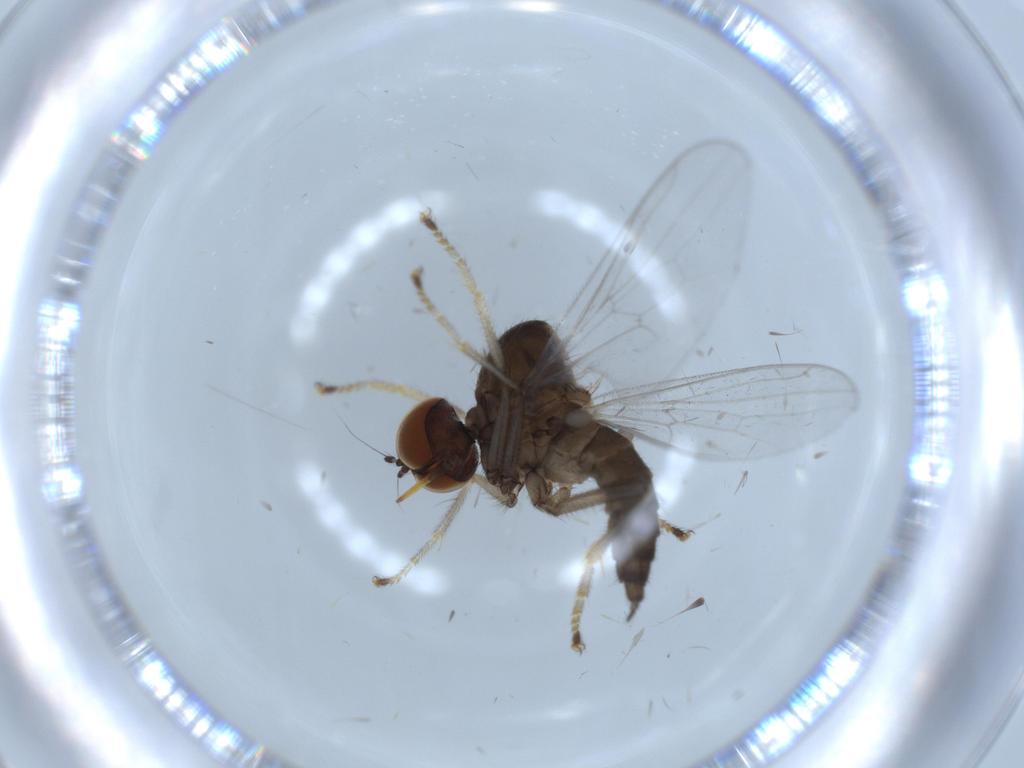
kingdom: Animalia
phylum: Arthropoda
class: Insecta
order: Diptera
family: Hybotidae
